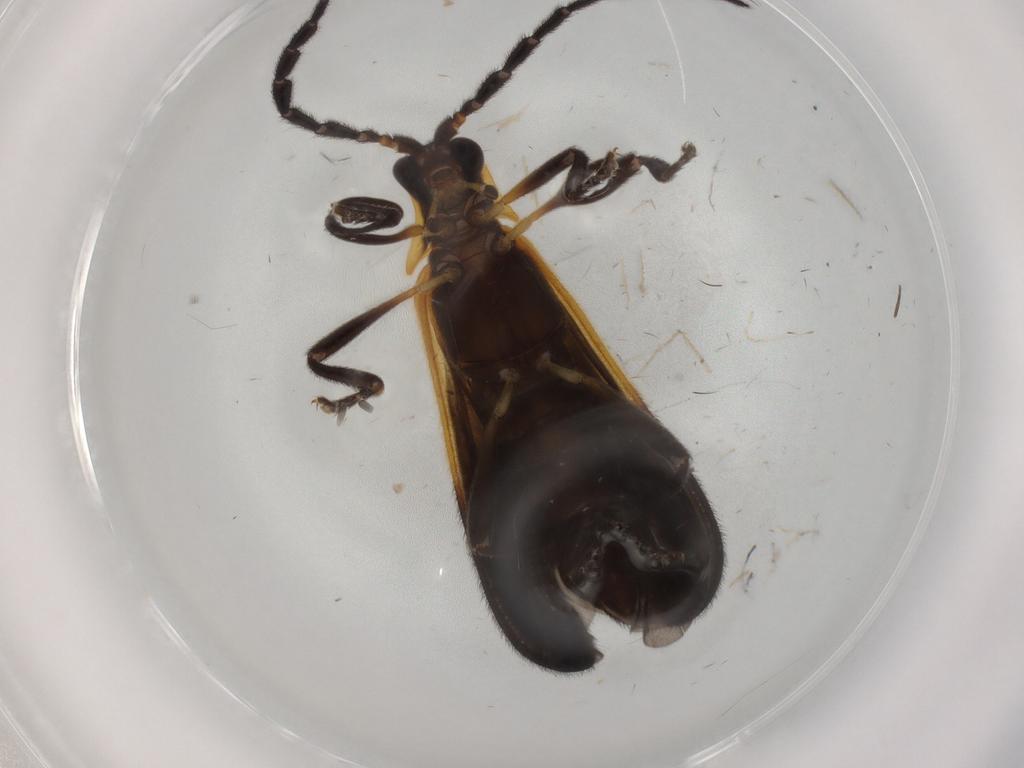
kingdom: Animalia
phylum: Arthropoda
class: Insecta
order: Coleoptera
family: Lycidae
